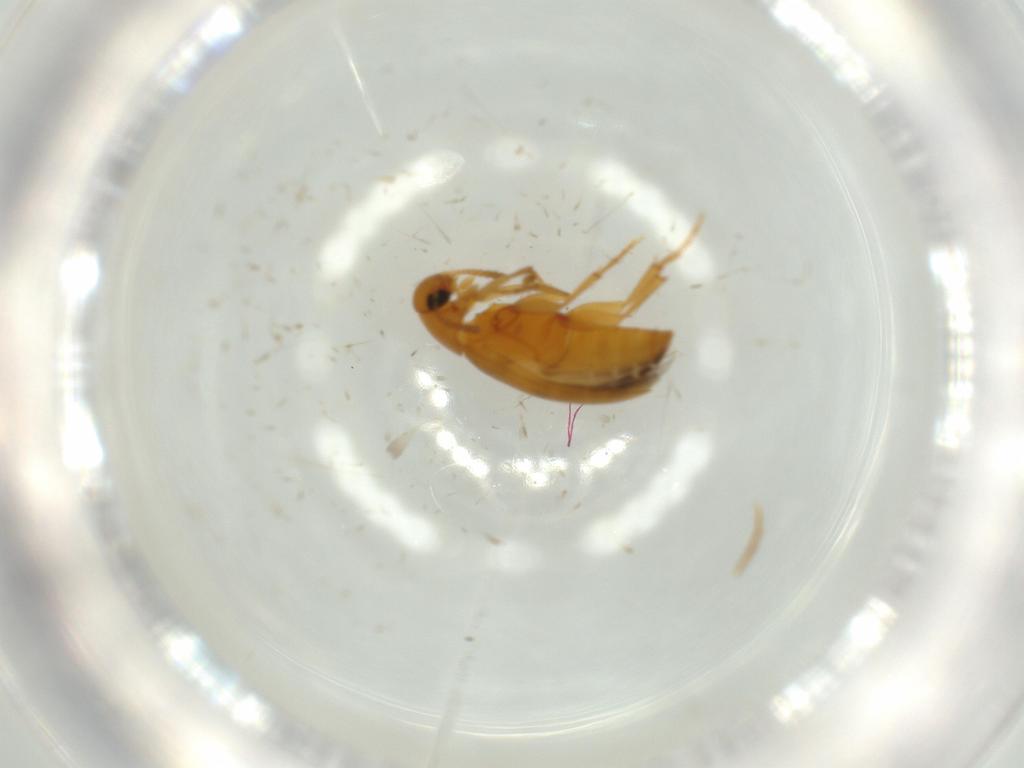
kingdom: Animalia
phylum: Arthropoda
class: Insecta
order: Coleoptera
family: Scraptiidae
